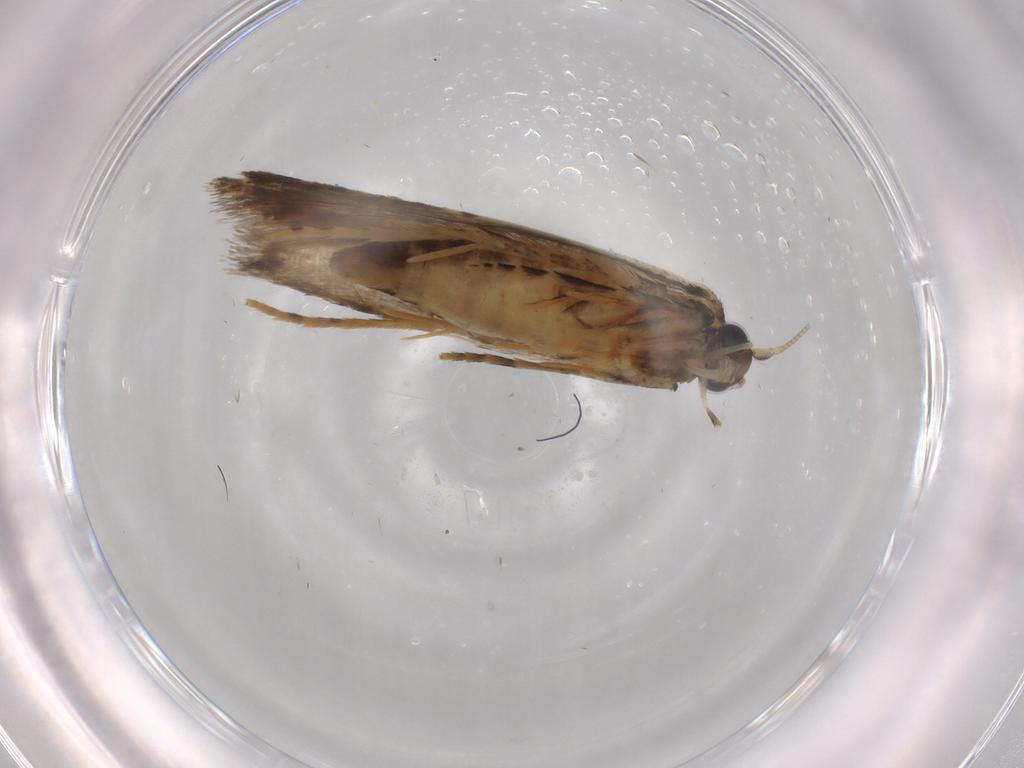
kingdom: Animalia
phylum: Arthropoda
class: Insecta
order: Lepidoptera
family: Tineidae
